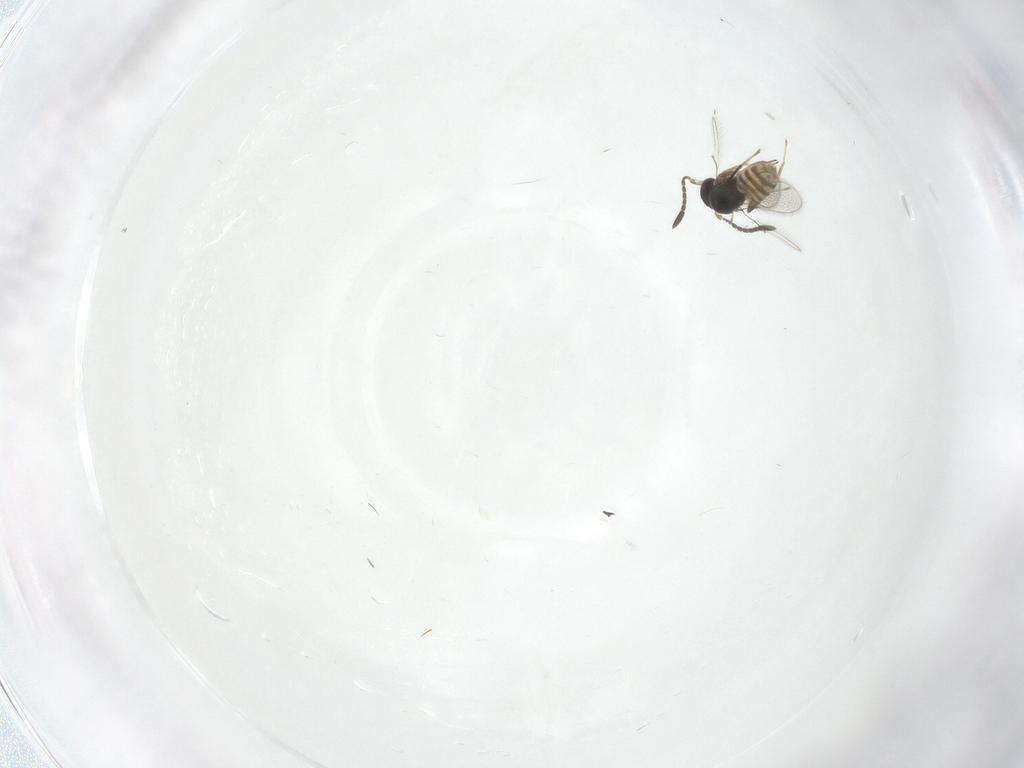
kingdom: Animalia
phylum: Arthropoda
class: Insecta
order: Hymenoptera
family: Mymaridae
